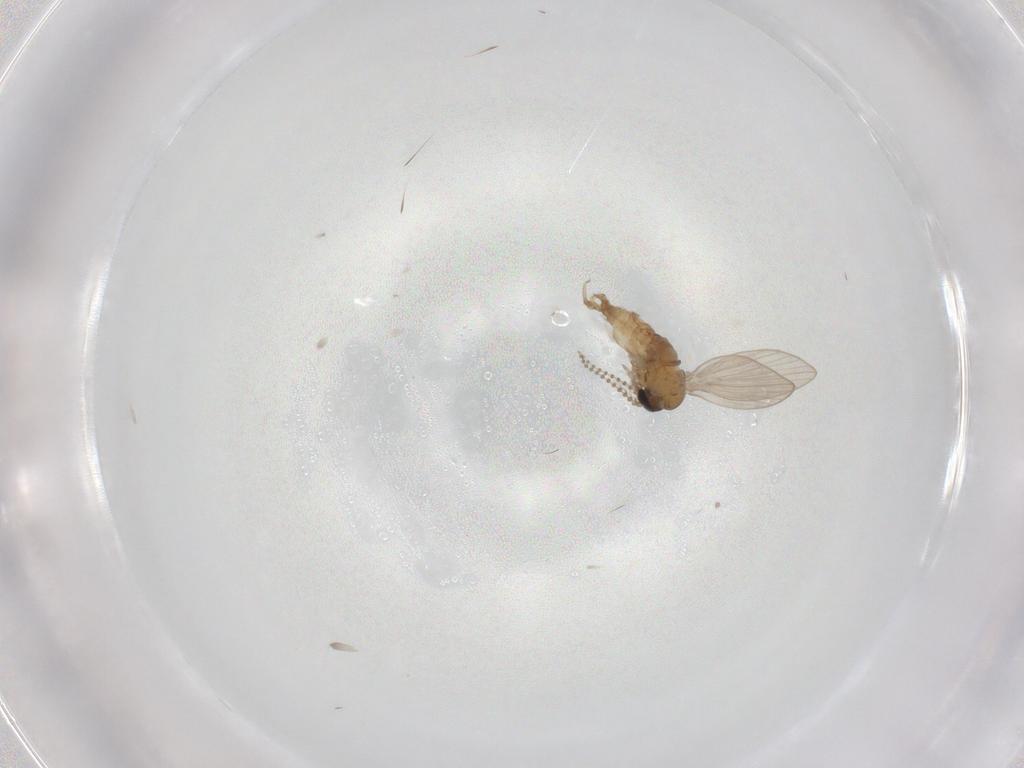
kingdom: Animalia
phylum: Arthropoda
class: Insecta
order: Diptera
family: Psychodidae
